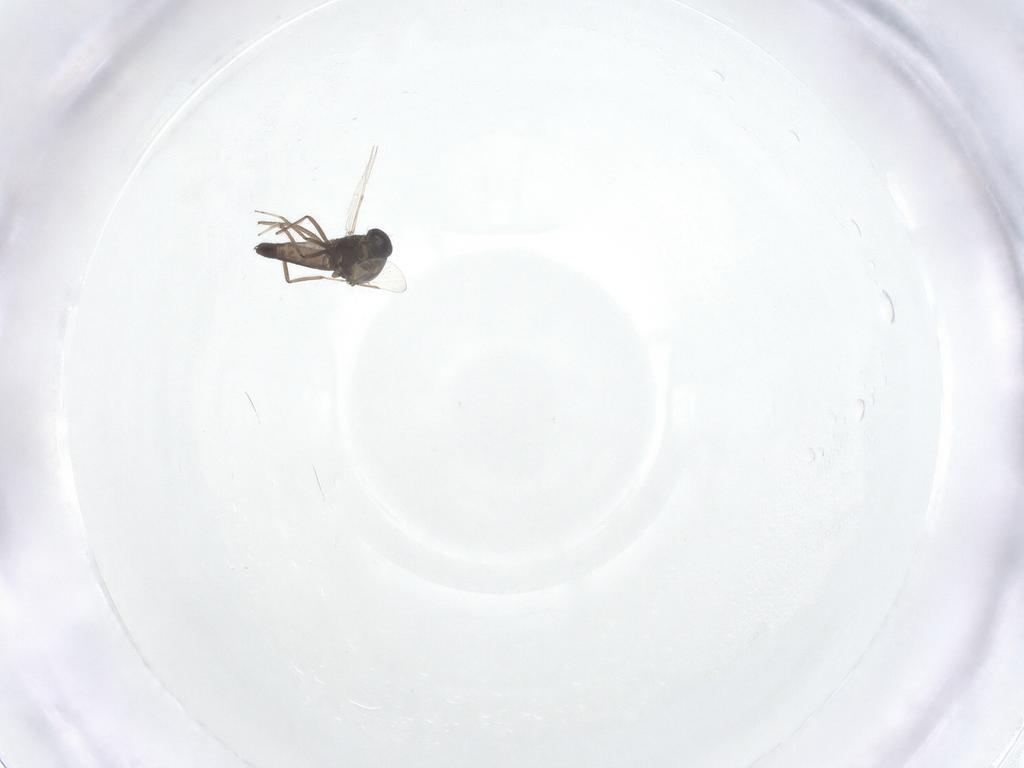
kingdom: Animalia
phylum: Arthropoda
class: Insecta
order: Diptera
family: Ceratopogonidae
